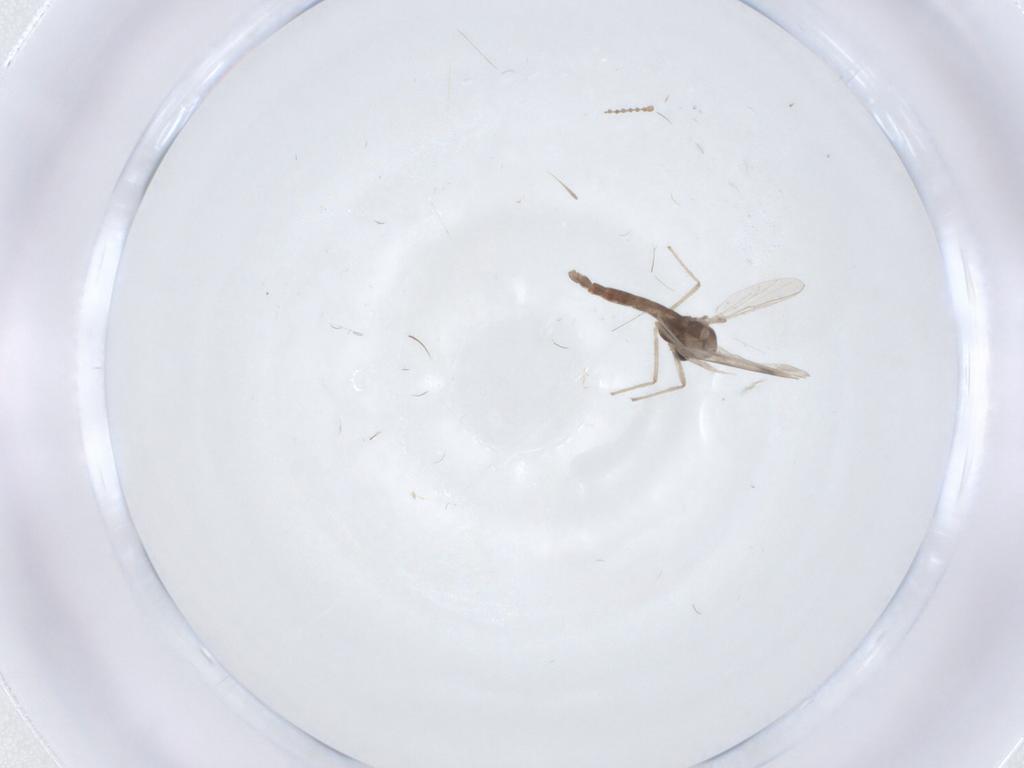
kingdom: Animalia
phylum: Arthropoda
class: Insecta
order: Diptera
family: Cecidomyiidae
